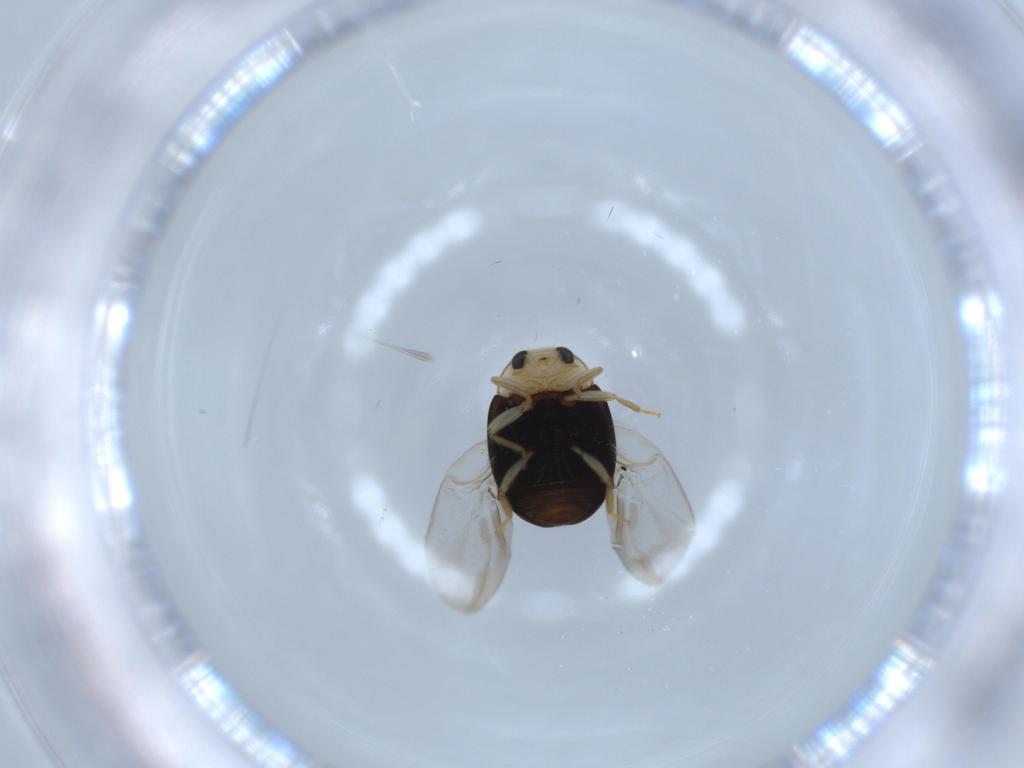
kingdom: Animalia
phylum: Arthropoda
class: Insecta
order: Coleoptera
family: Coccinellidae
